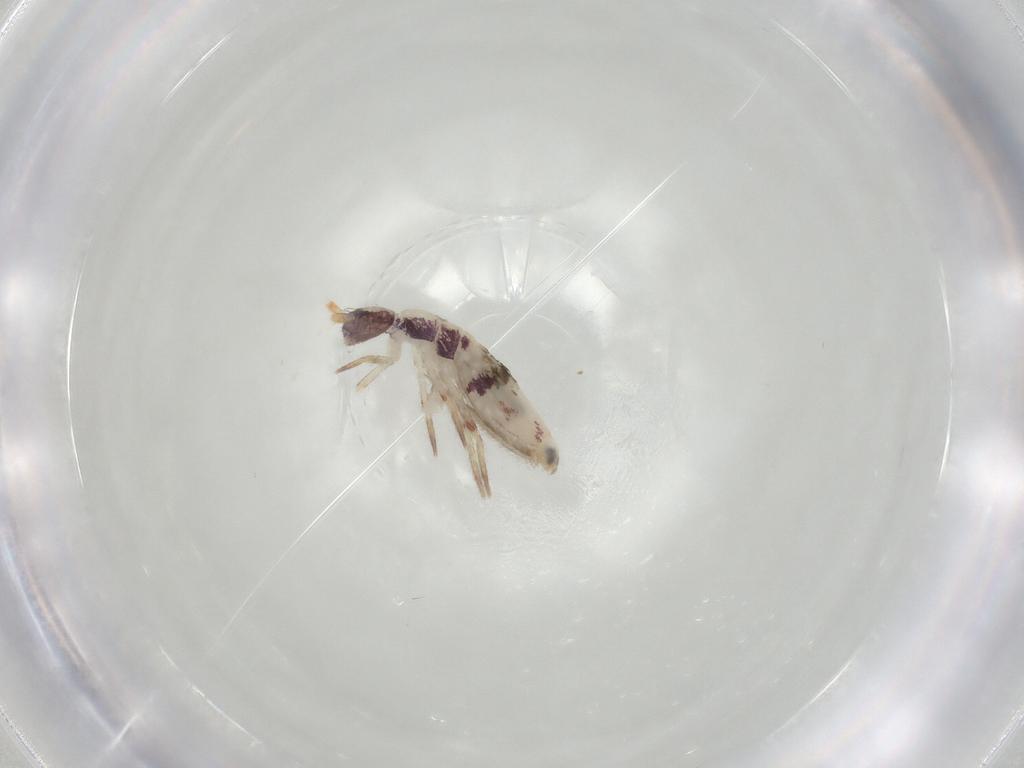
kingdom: Animalia
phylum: Arthropoda
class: Collembola
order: Entomobryomorpha
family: Entomobryidae
